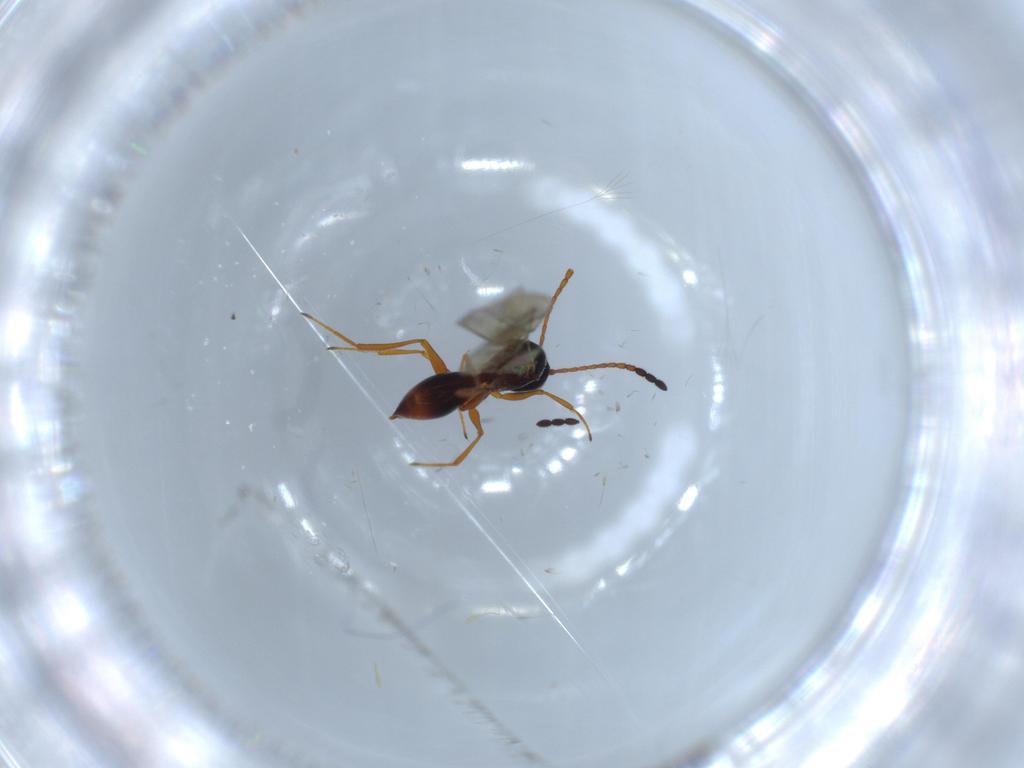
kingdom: Animalia
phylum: Arthropoda
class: Insecta
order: Hymenoptera
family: Figitidae
